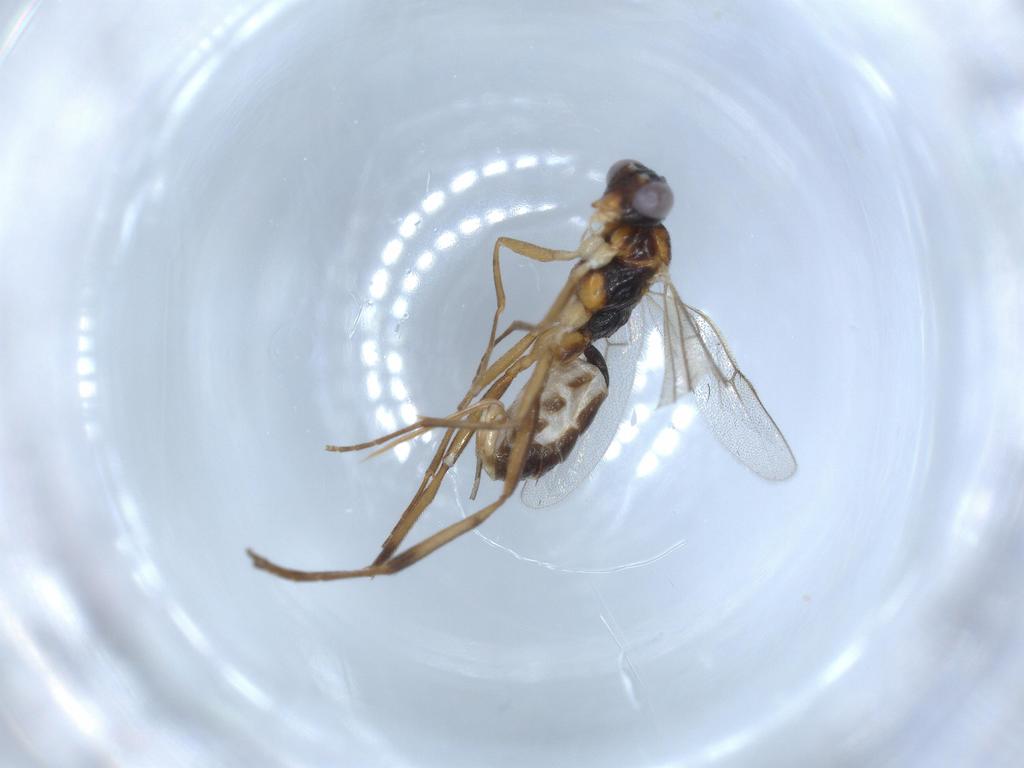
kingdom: Animalia
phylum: Arthropoda
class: Insecta
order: Hymenoptera
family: Ichneumonidae
